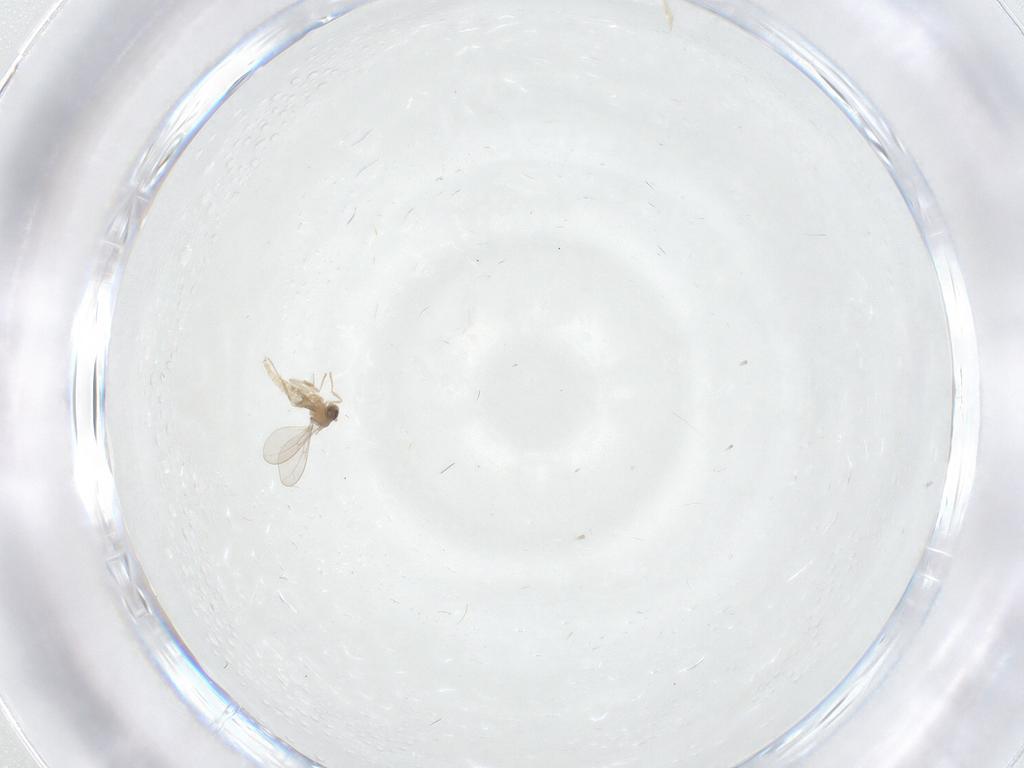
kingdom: Animalia
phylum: Arthropoda
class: Insecta
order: Diptera
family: Cecidomyiidae
